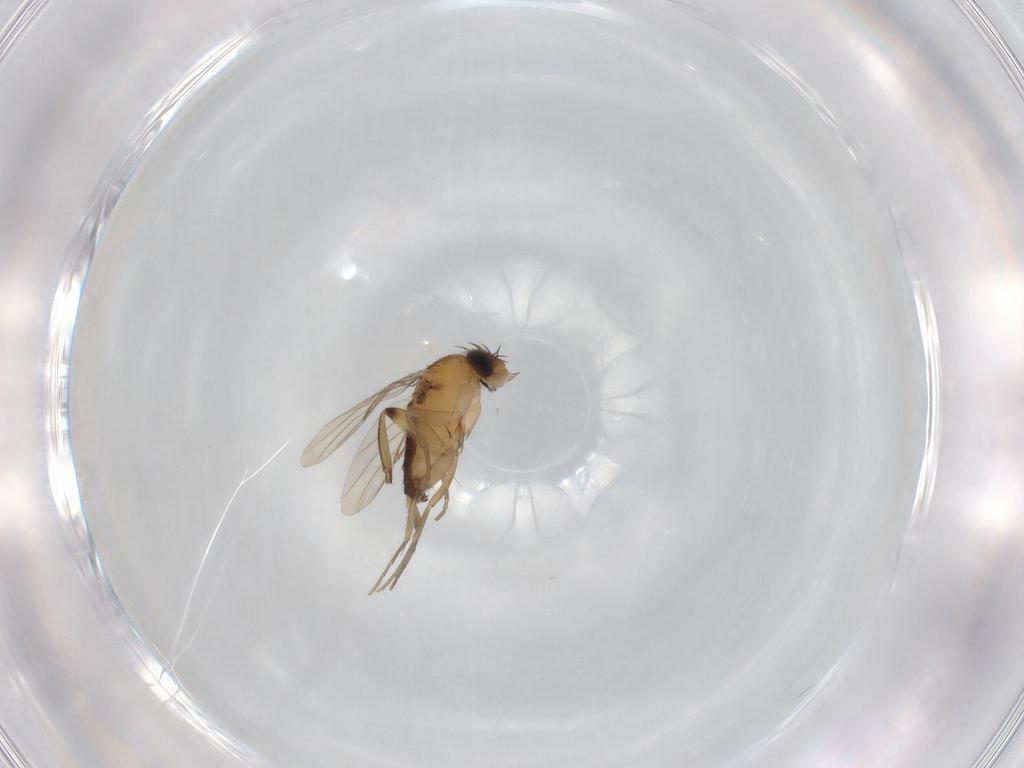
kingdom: Animalia
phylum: Arthropoda
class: Insecta
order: Diptera
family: Phoridae
